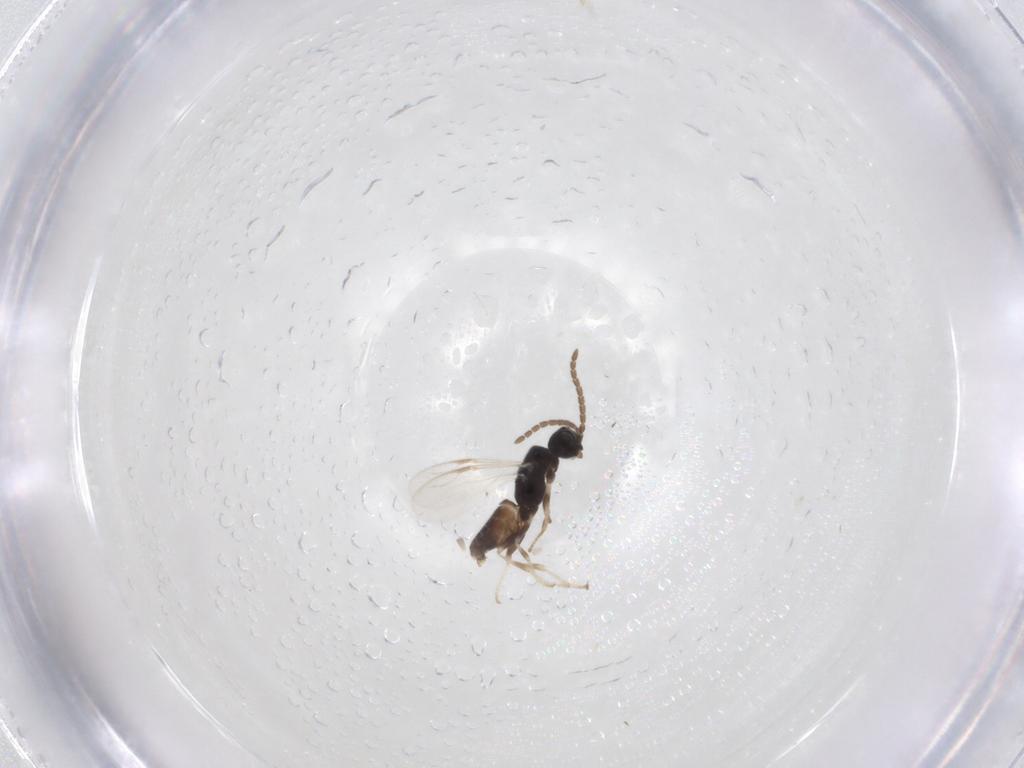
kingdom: Animalia
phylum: Arthropoda
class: Insecta
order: Hymenoptera
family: Dryinidae
